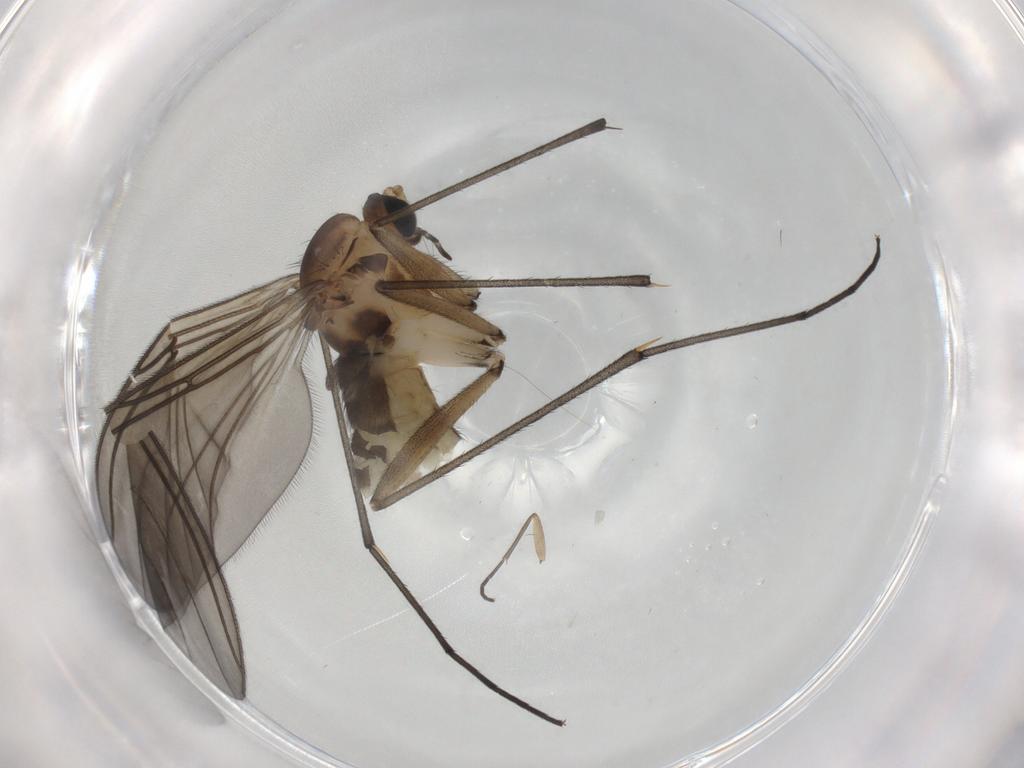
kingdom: Animalia
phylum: Arthropoda
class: Insecta
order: Diptera
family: Sciaridae
